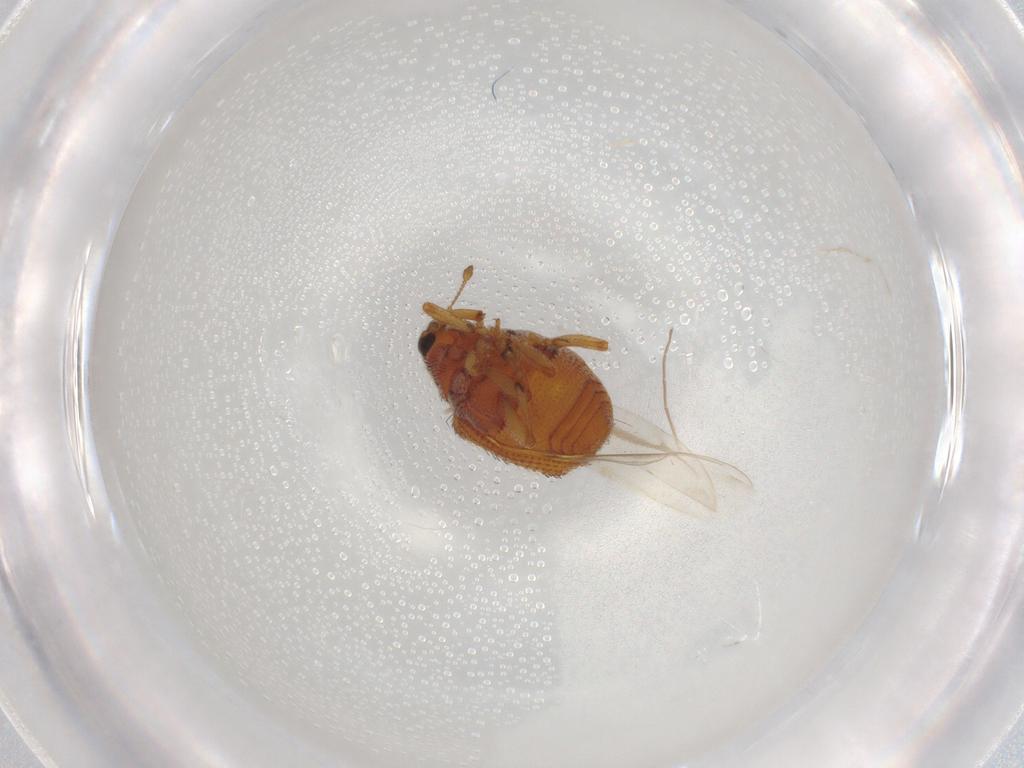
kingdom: Animalia
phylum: Arthropoda
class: Insecta
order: Coleoptera
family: Curculionidae
